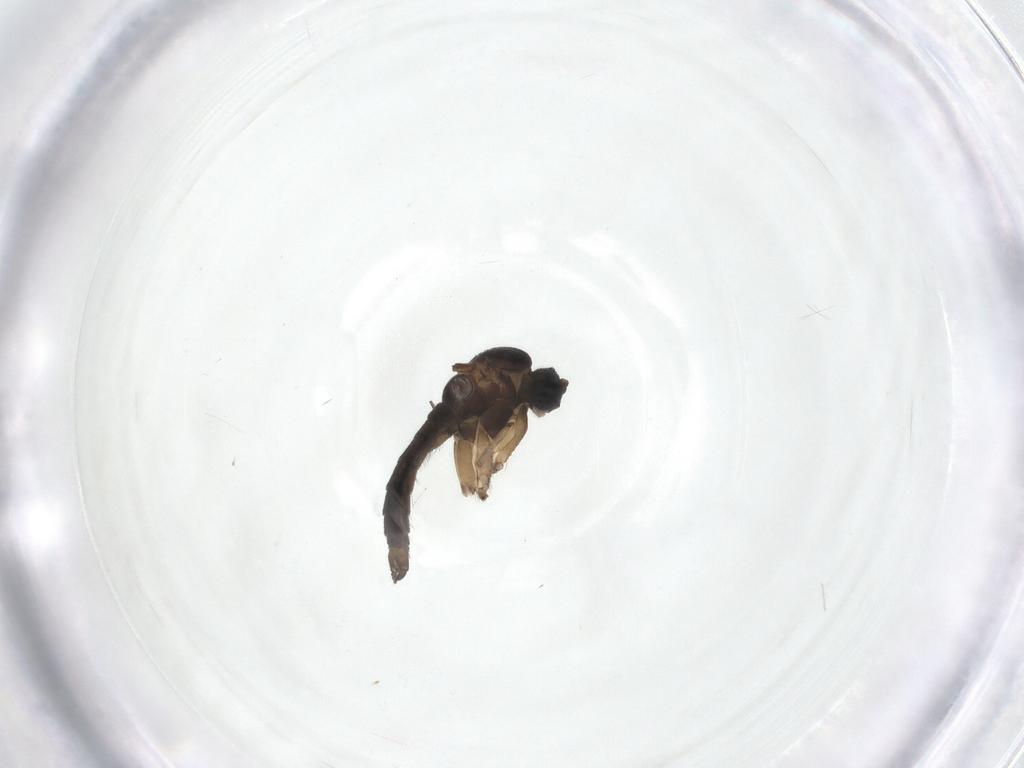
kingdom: Animalia
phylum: Arthropoda
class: Insecta
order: Diptera
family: Sciaridae
